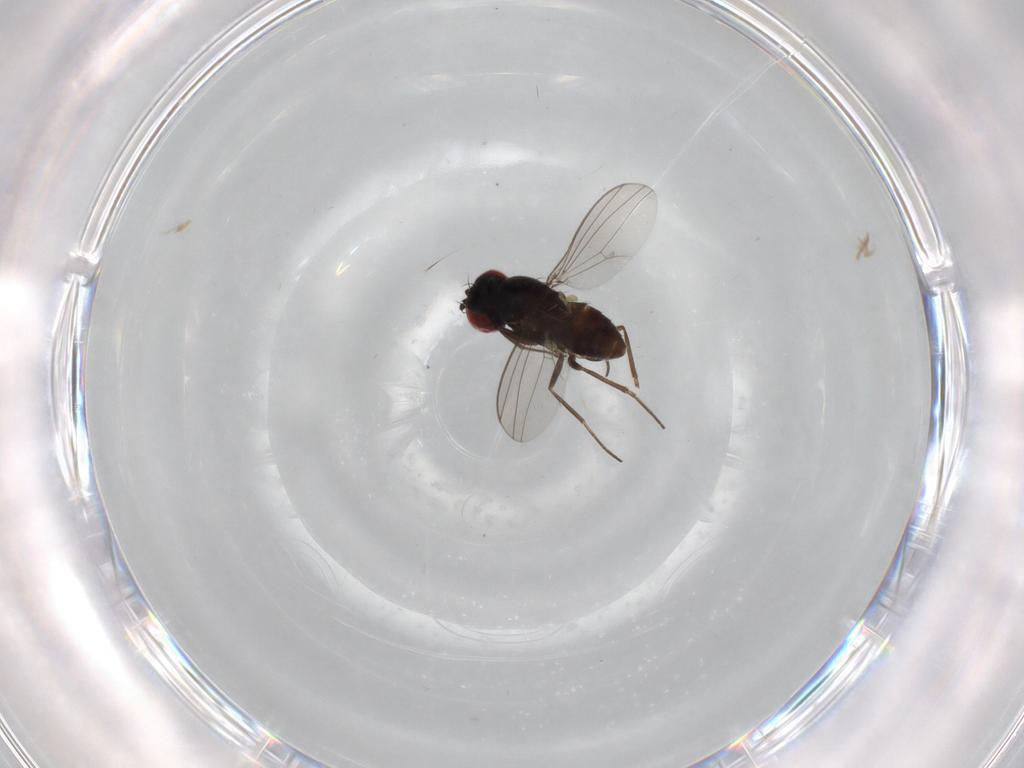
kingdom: Animalia
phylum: Arthropoda
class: Insecta
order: Diptera
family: Dolichopodidae
